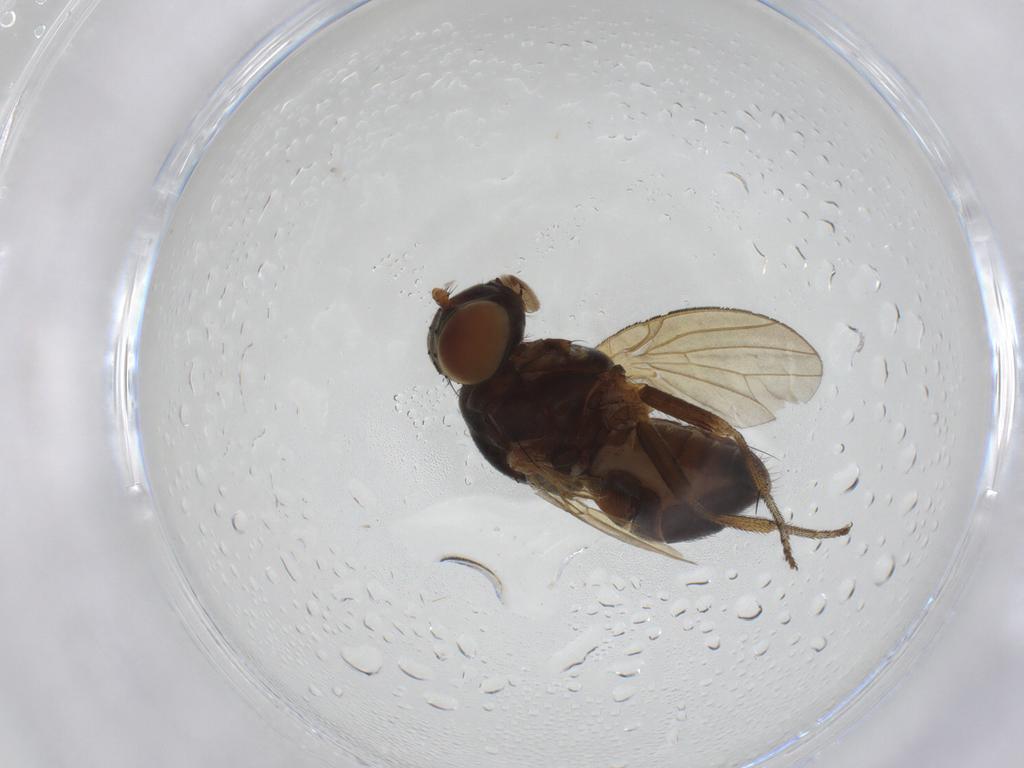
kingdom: Animalia
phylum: Arthropoda
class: Insecta
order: Diptera
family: Lauxaniidae
